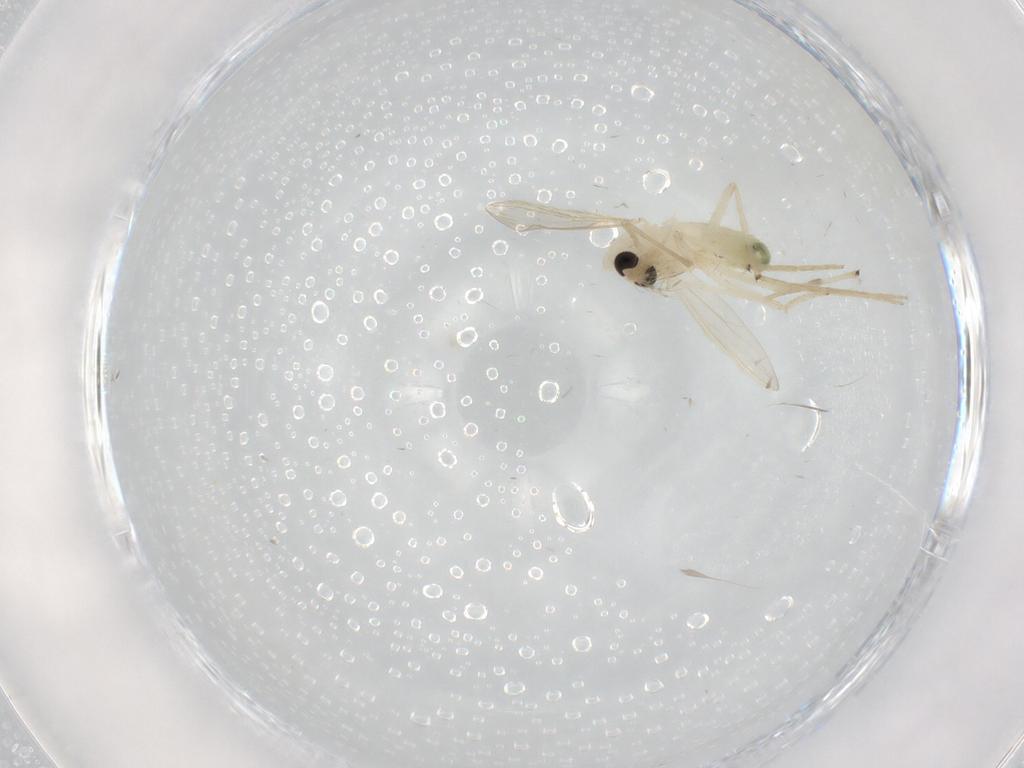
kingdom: Animalia
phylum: Arthropoda
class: Insecta
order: Diptera
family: Chironomidae
